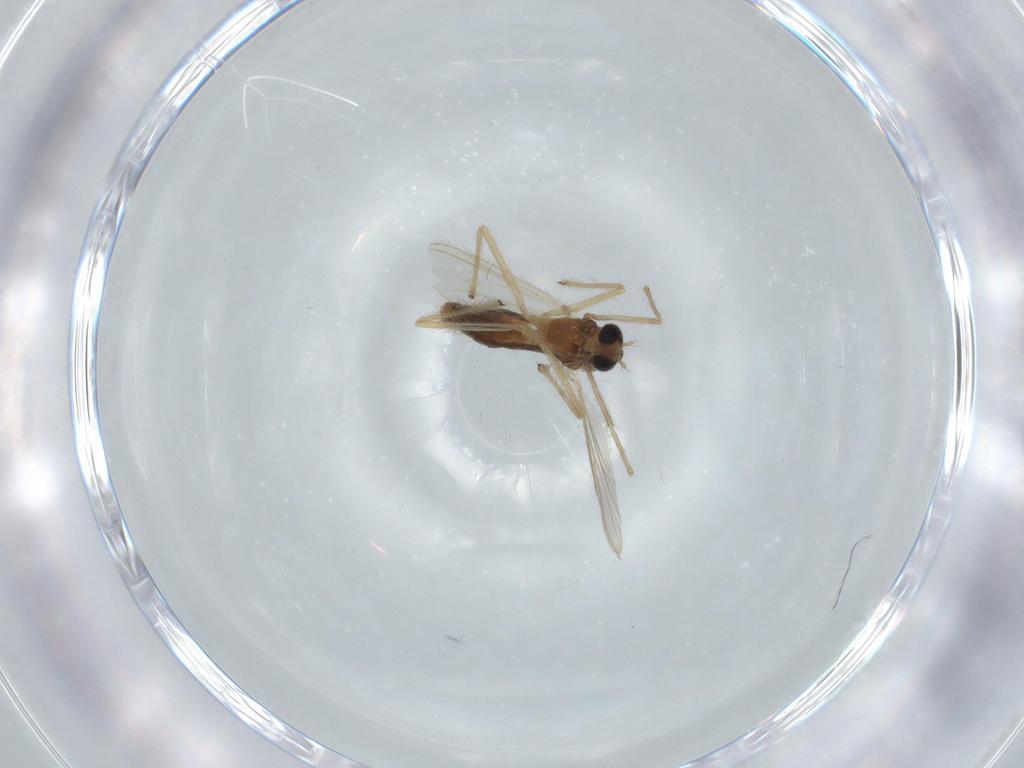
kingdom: Animalia
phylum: Arthropoda
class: Insecta
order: Diptera
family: Chironomidae
